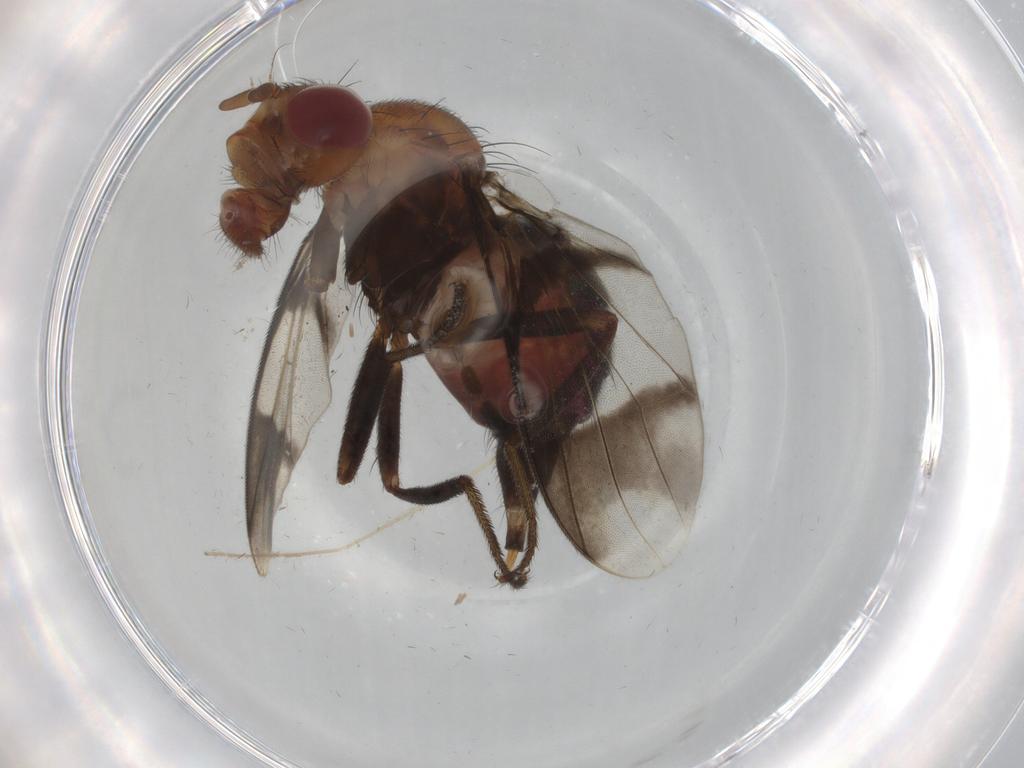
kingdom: Animalia
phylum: Arthropoda
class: Insecta
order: Diptera
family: Richardiidae
